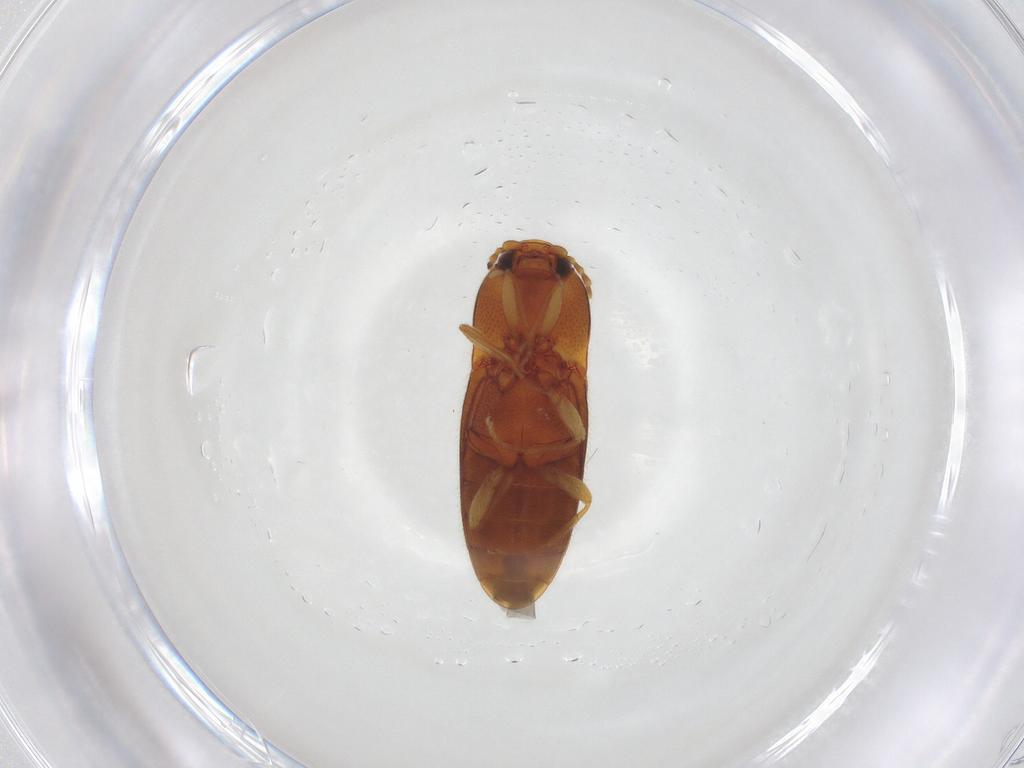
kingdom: Animalia
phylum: Arthropoda
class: Insecta
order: Coleoptera
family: Elateridae
